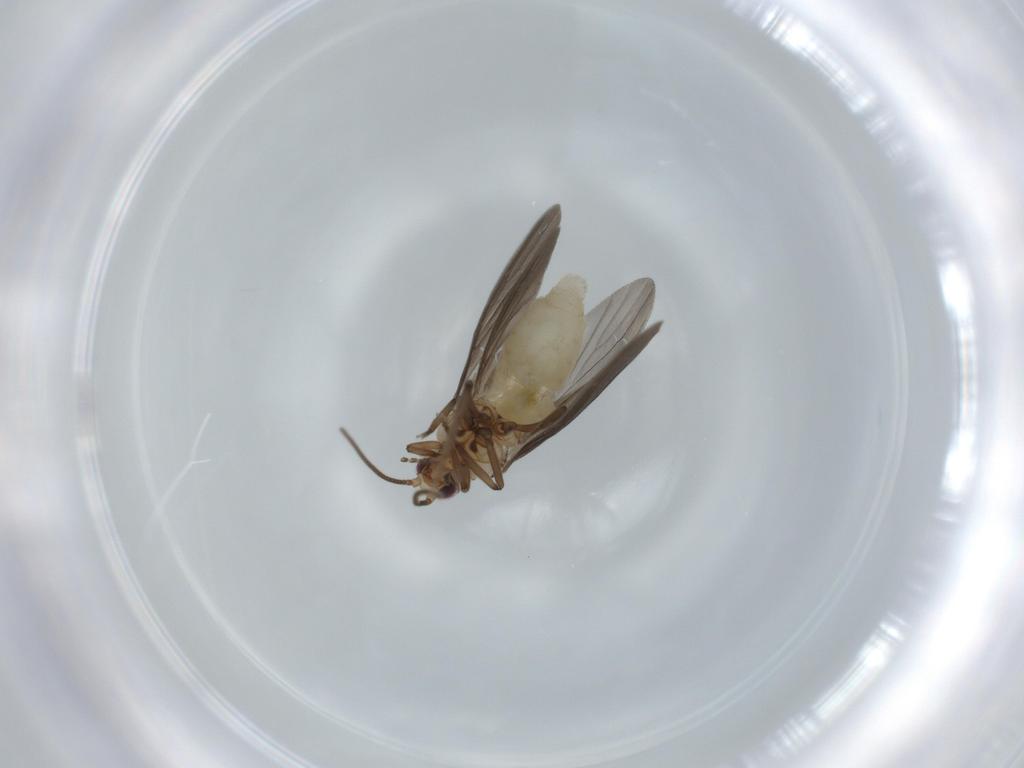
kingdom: Animalia
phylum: Arthropoda
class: Insecta
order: Neuroptera
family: Coniopterygidae
